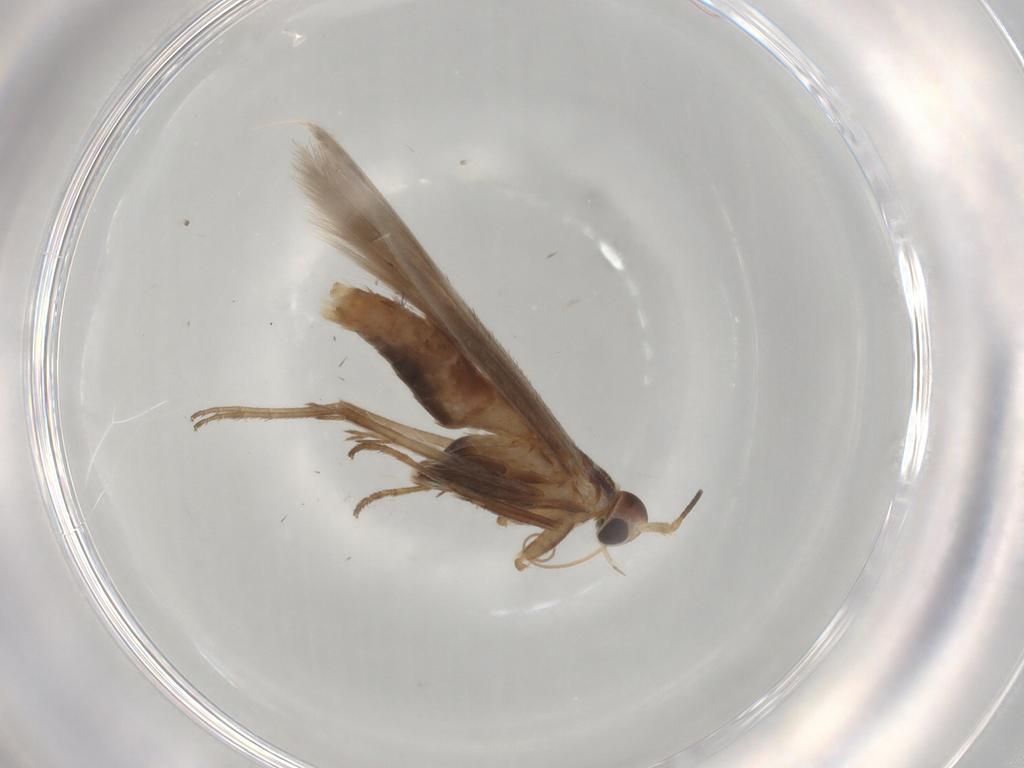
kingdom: Animalia
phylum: Arthropoda
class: Insecta
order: Lepidoptera
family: Coleophoridae
